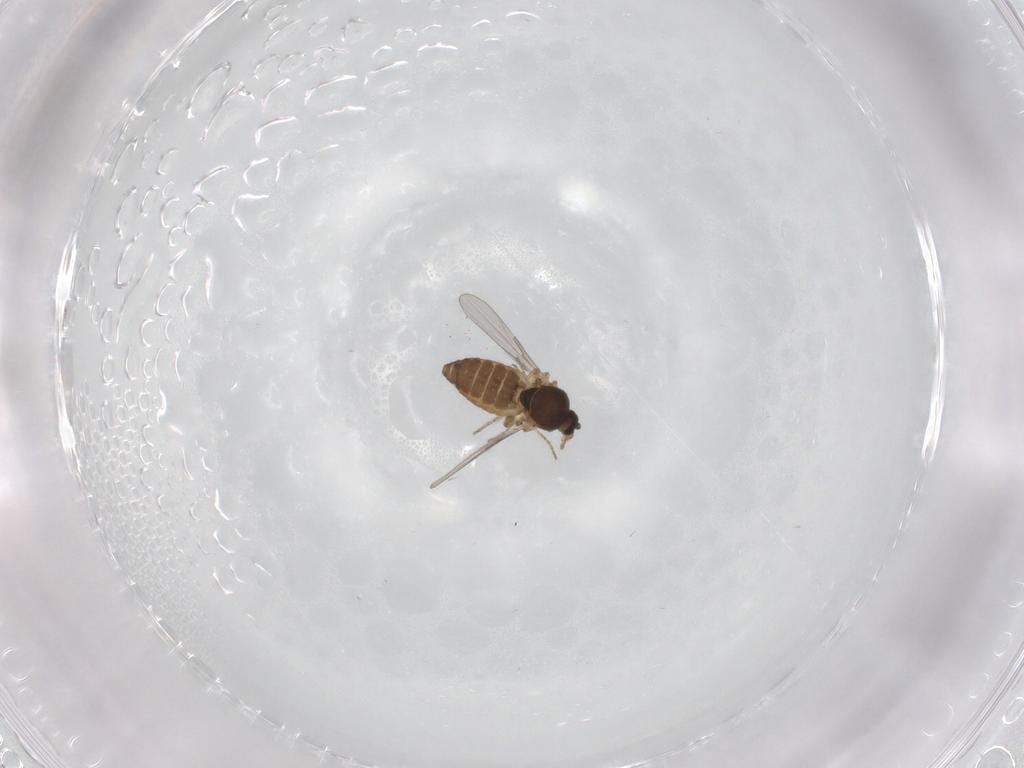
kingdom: Animalia
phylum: Arthropoda
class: Insecta
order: Diptera
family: Ceratopogonidae
